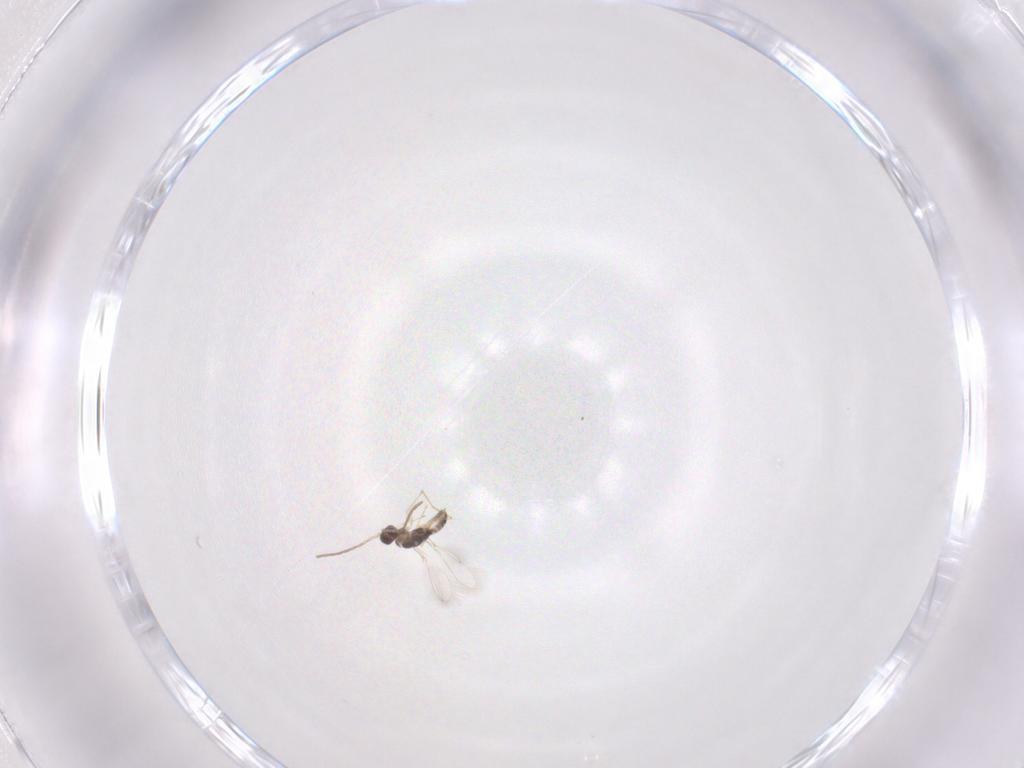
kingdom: Animalia
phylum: Arthropoda
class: Insecta
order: Hymenoptera
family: Mymaridae
